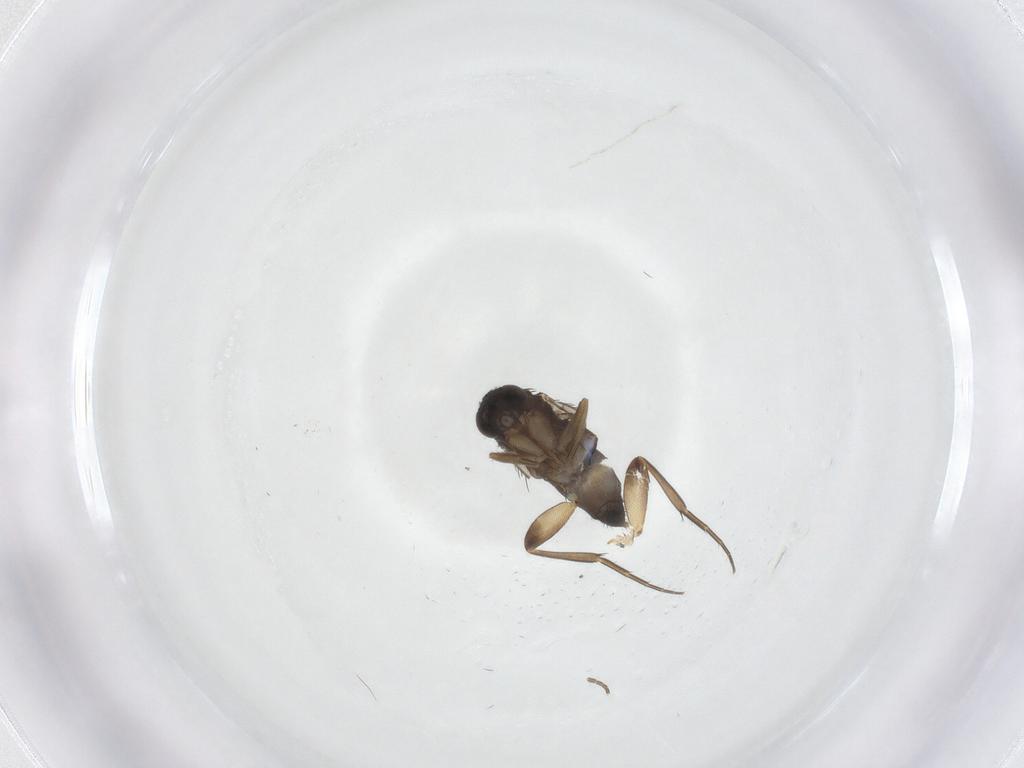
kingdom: Animalia
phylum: Arthropoda
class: Insecta
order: Diptera
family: Phoridae
